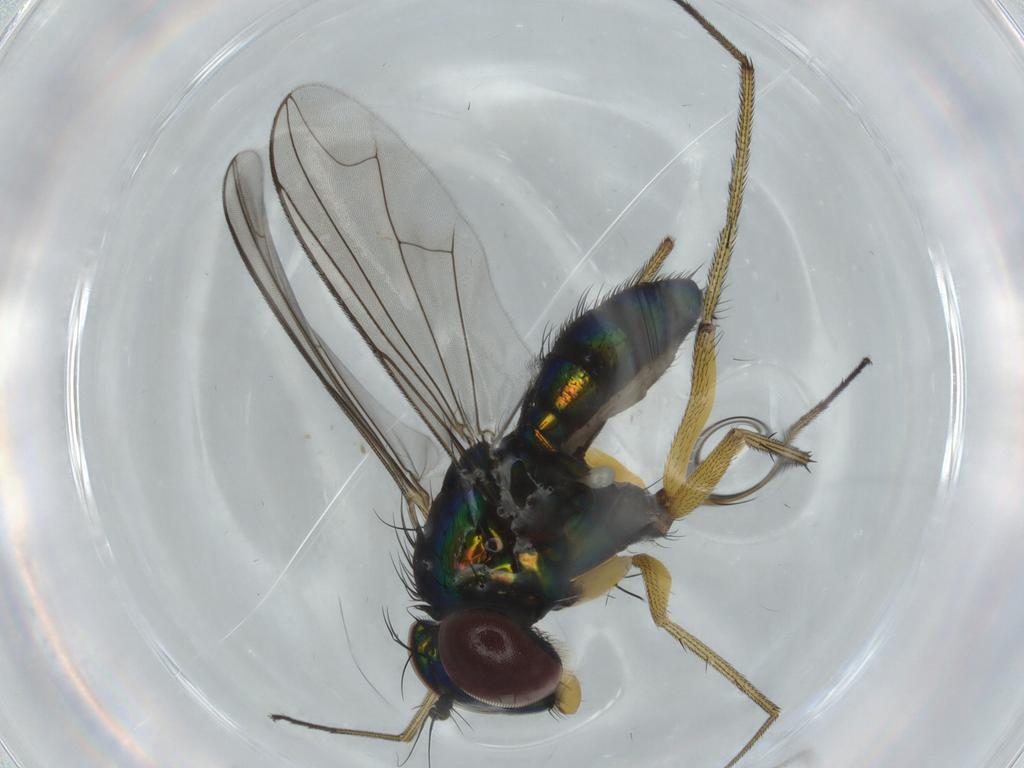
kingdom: Animalia
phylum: Arthropoda
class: Insecta
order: Diptera
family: Dolichopodidae
